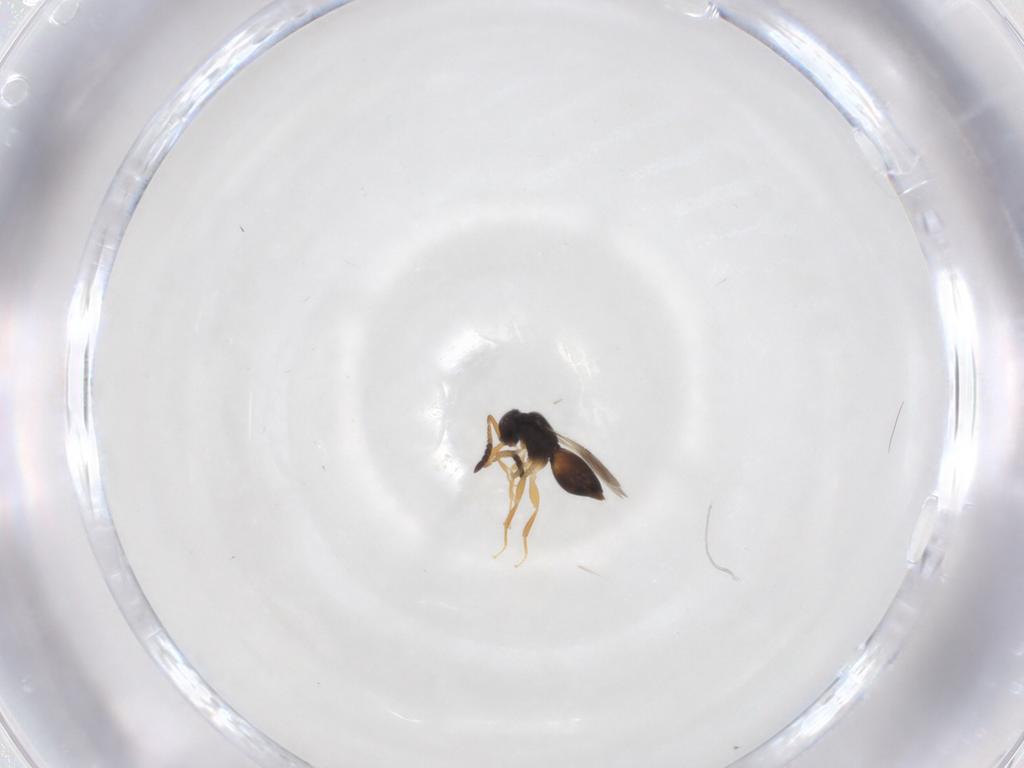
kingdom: Animalia
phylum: Arthropoda
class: Insecta
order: Hymenoptera
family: Ceraphronidae
